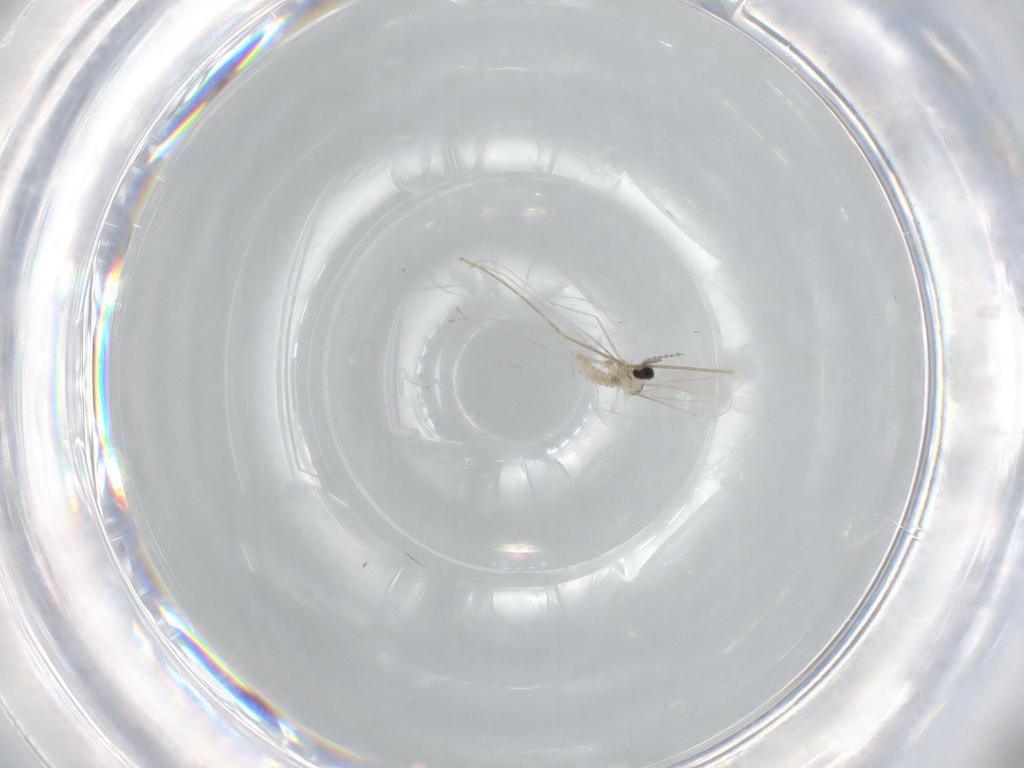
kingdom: Animalia
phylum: Arthropoda
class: Insecta
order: Diptera
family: Cecidomyiidae
